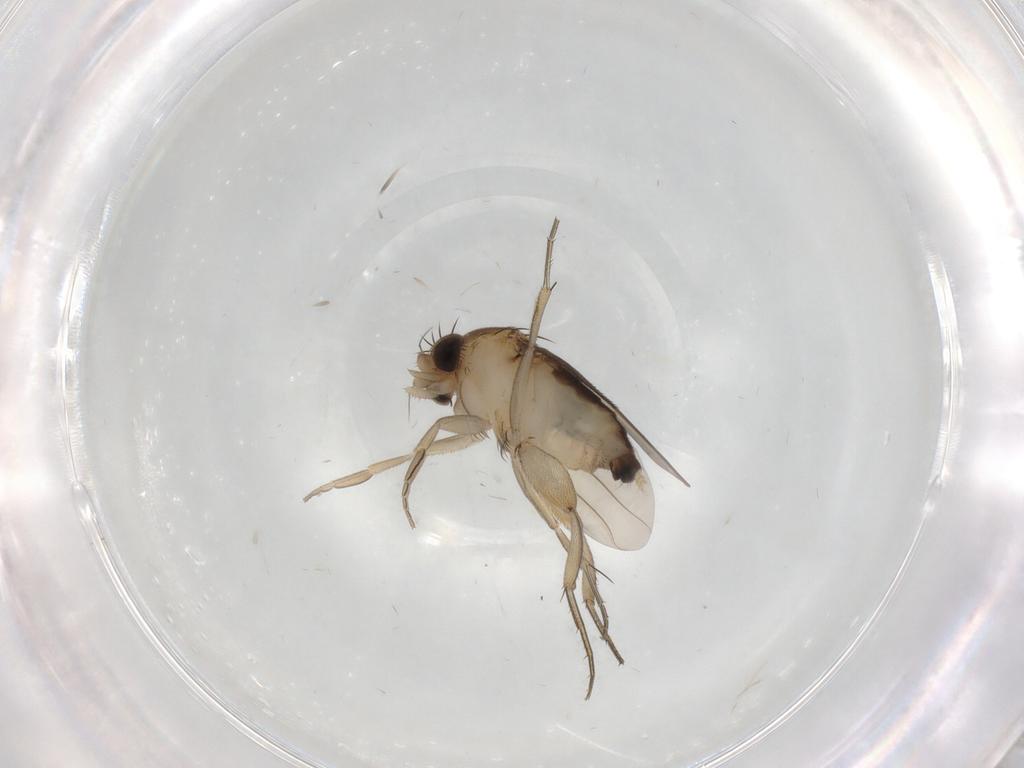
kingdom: Animalia
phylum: Arthropoda
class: Insecta
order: Diptera
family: Phoridae
